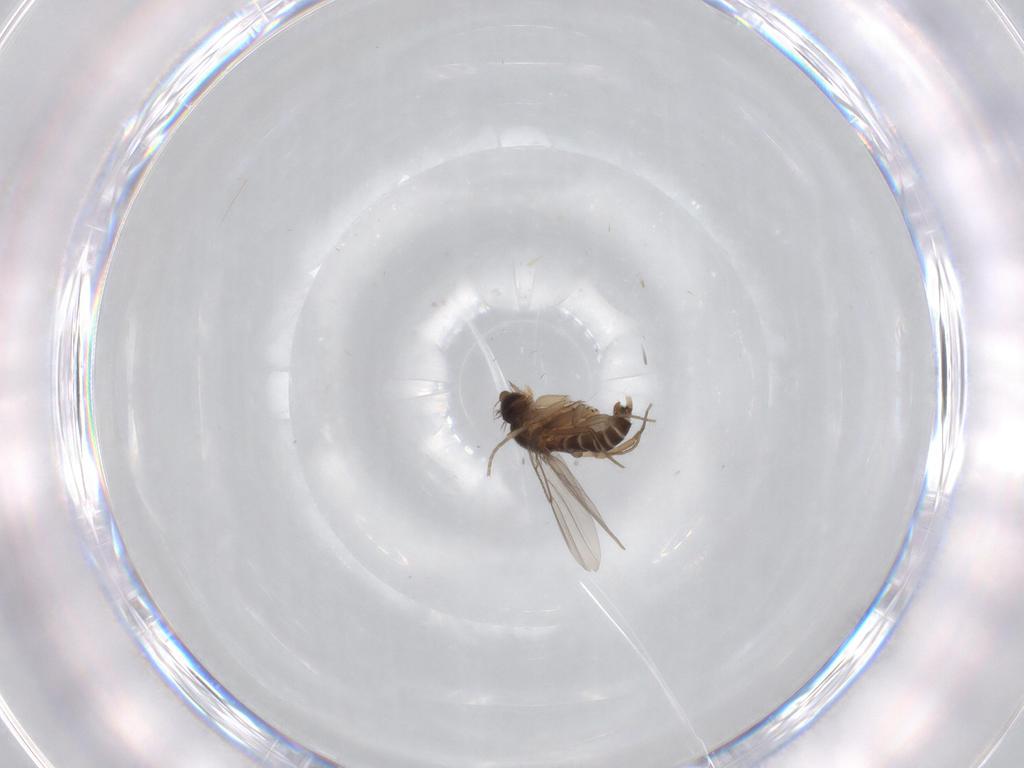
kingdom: Animalia
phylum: Arthropoda
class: Insecta
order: Diptera
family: Phoridae
